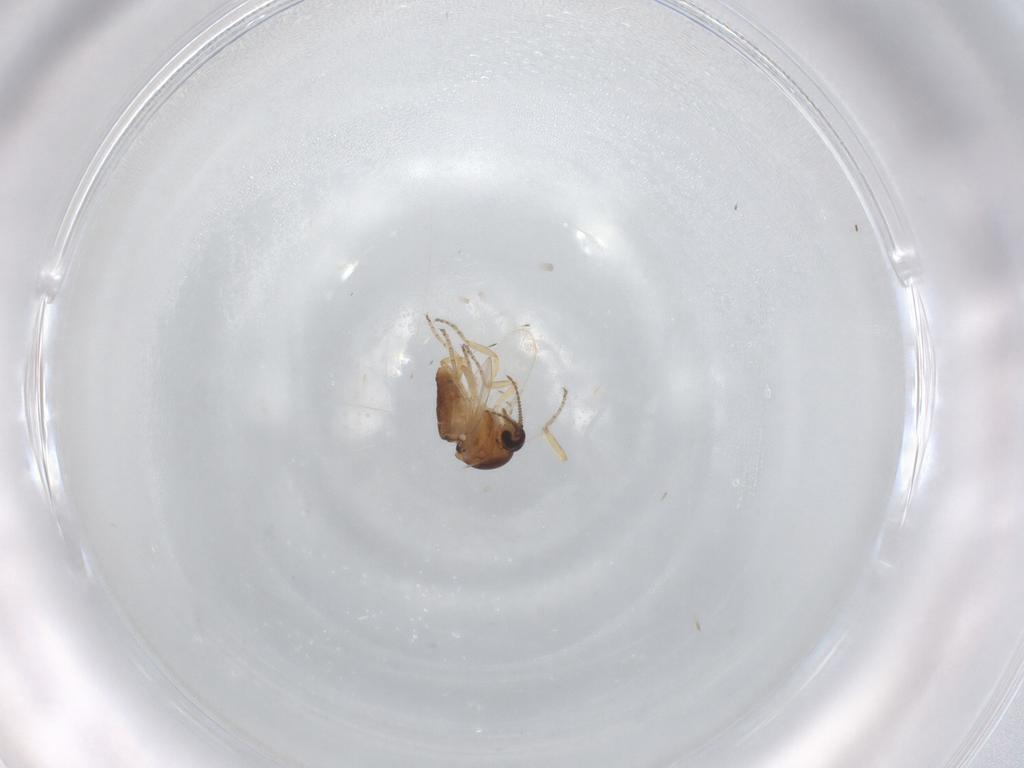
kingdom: Animalia
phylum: Arthropoda
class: Insecta
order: Diptera
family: Ceratopogonidae
